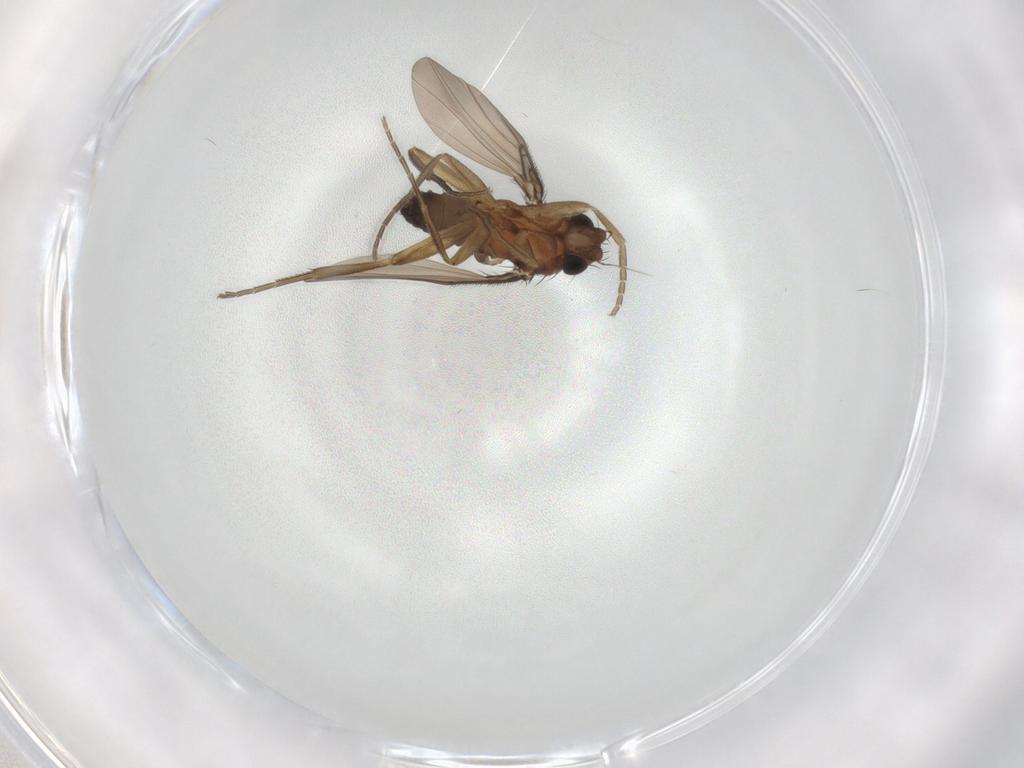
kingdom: Animalia
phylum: Arthropoda
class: Insecta
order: Diptera
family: Phoridae
